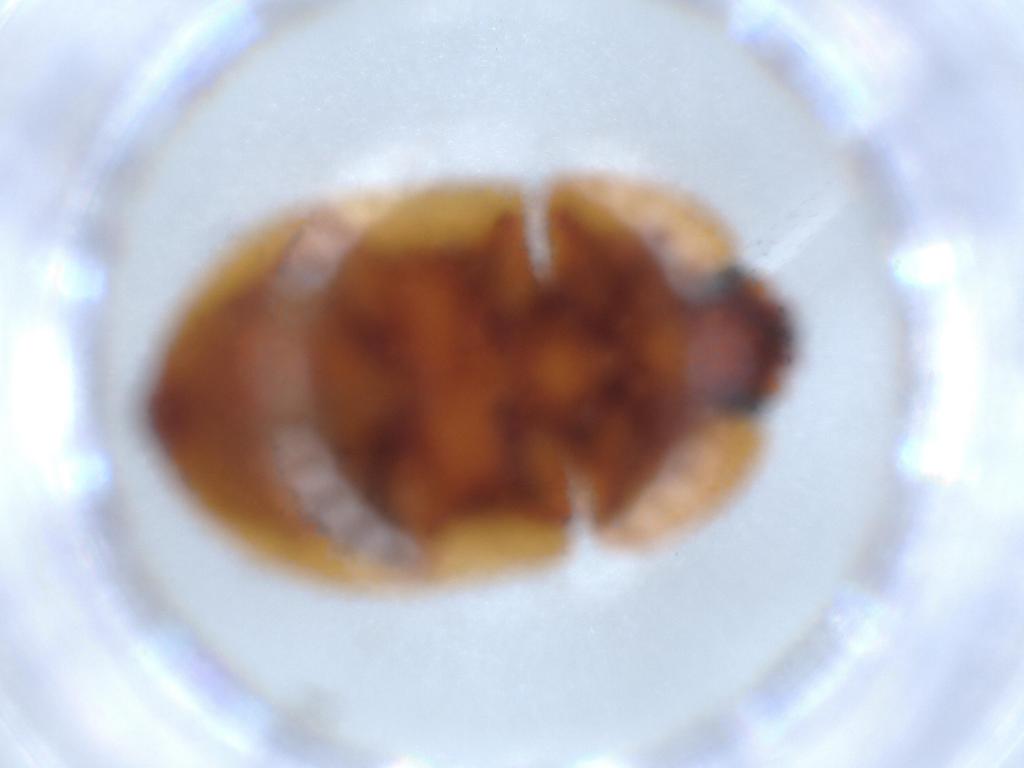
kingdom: Animalia
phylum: Arthropoda
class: Insecta
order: Coleoptera
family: Nitidulidae
